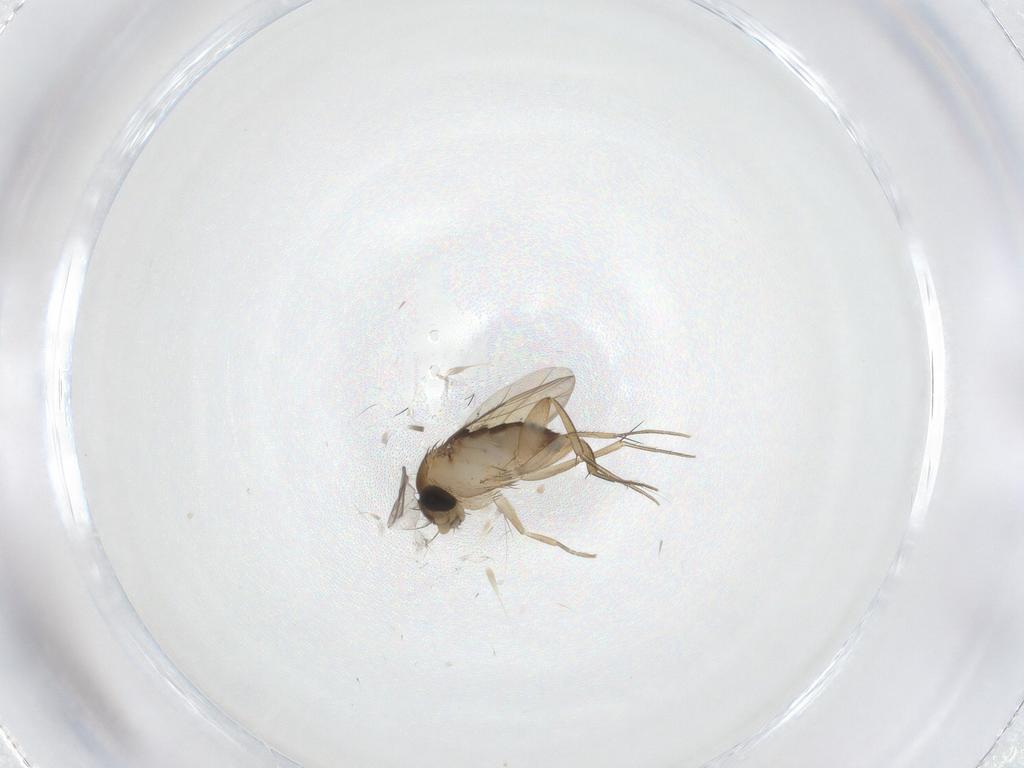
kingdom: Animalia
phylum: Arthropoda
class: Insecta
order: Diptera
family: Phoridae
